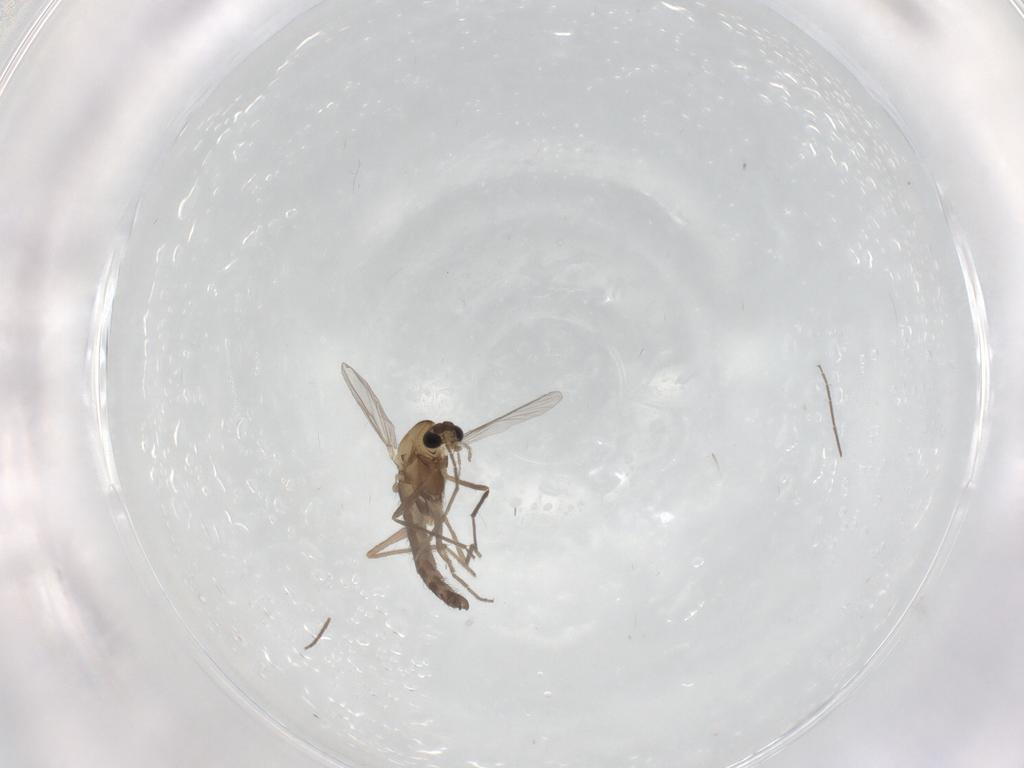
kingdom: Animalia
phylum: Arthropoda
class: Insecta
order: Diptera
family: Chironomidae
